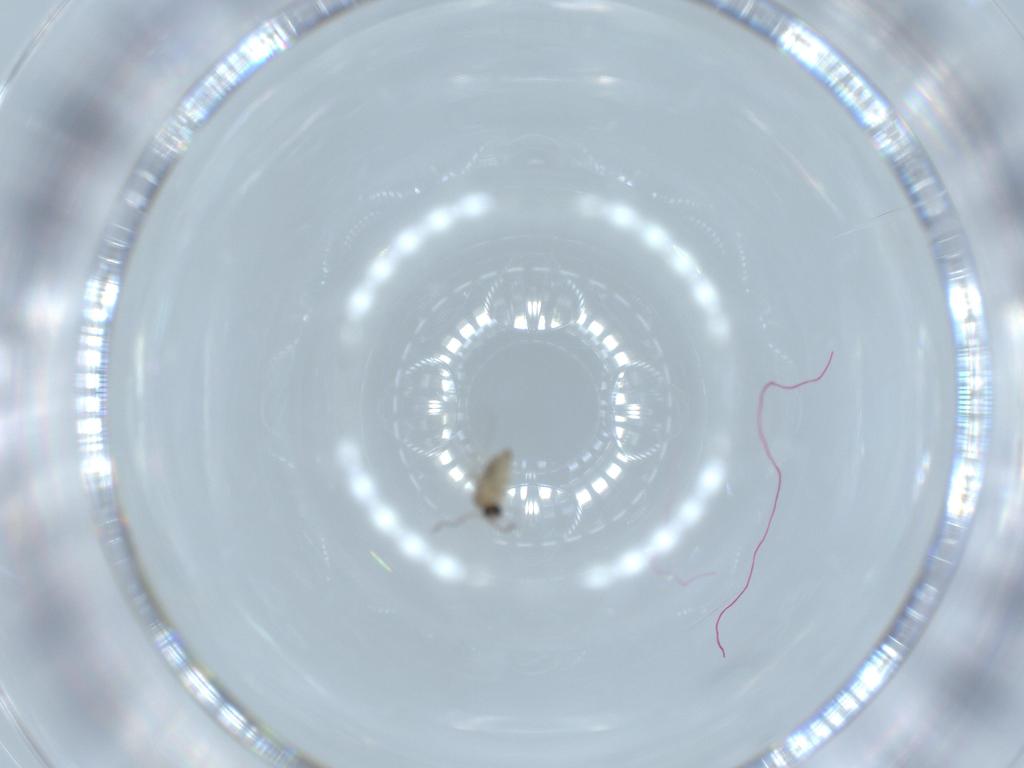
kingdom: Animalia
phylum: Arthropoda
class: Insecta
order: Diptera
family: Cecidomyiidae
